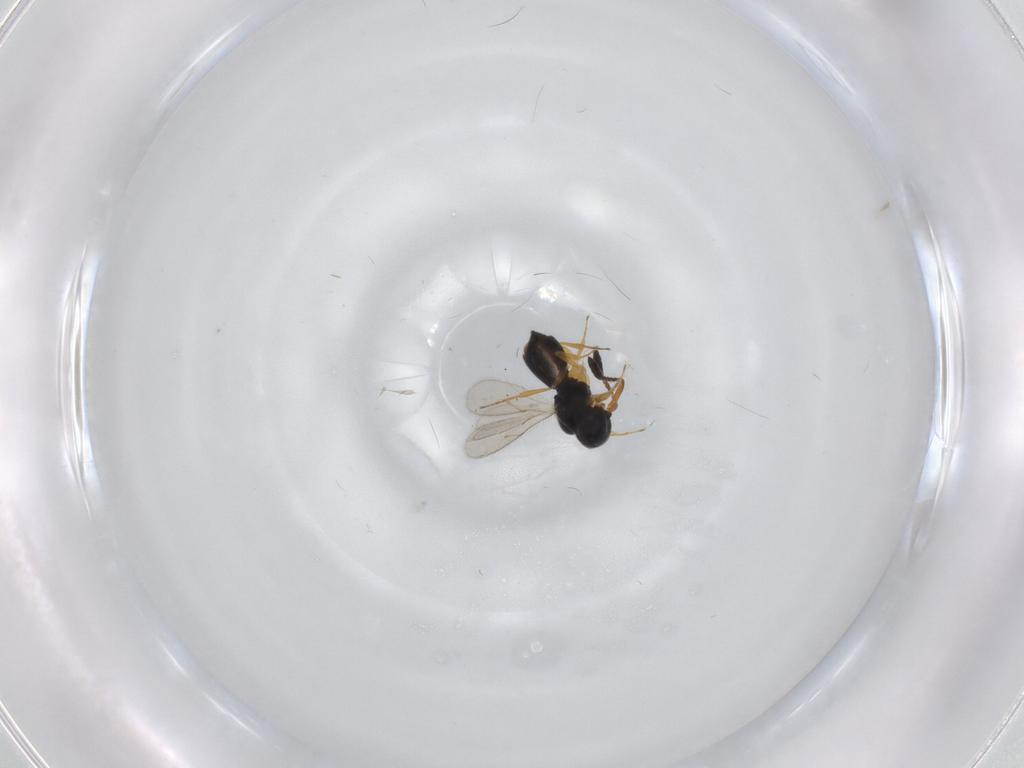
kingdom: Animalia
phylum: Arthropoda
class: Insecta
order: Hymenoptera
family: Scelionidae
